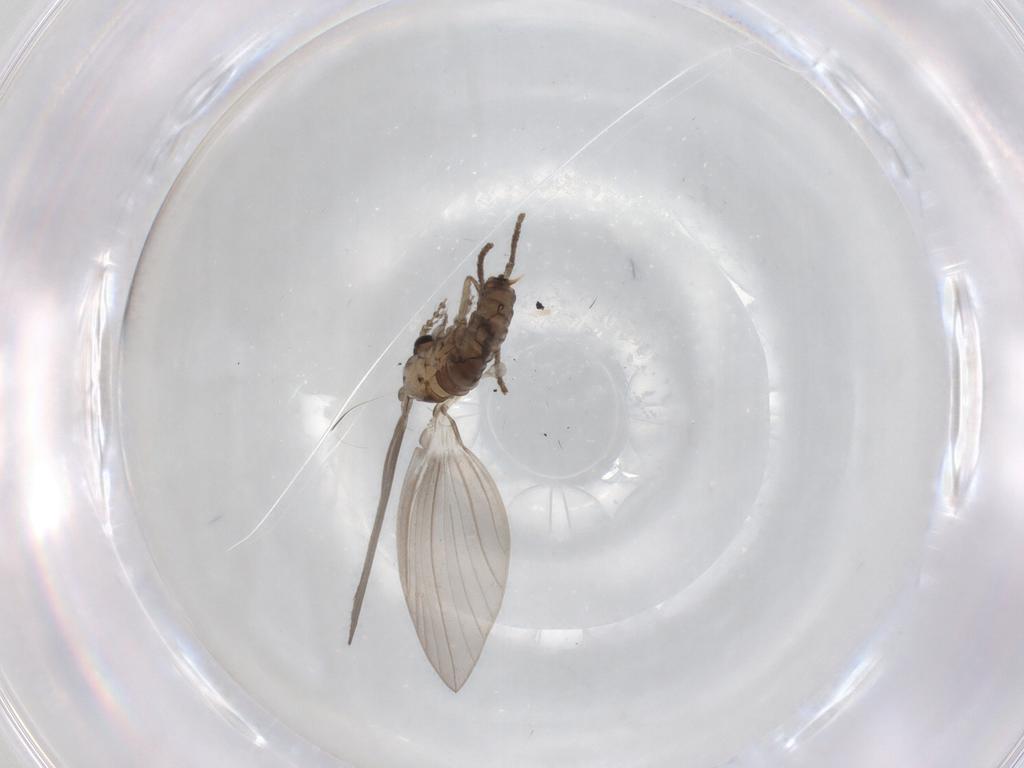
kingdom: Animalia
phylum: Arthropoda
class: Insecta
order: Diptera
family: Psychodidae
